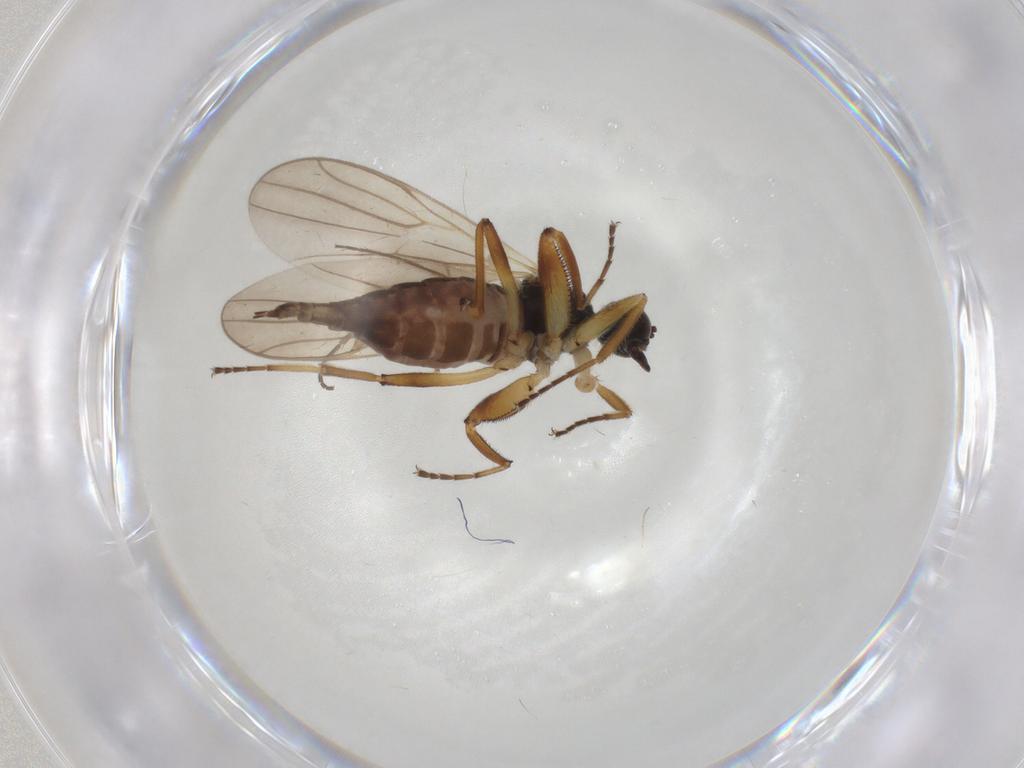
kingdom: Animalia
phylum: Arthropoda
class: Insecta
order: Diptera
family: Hybotidae
